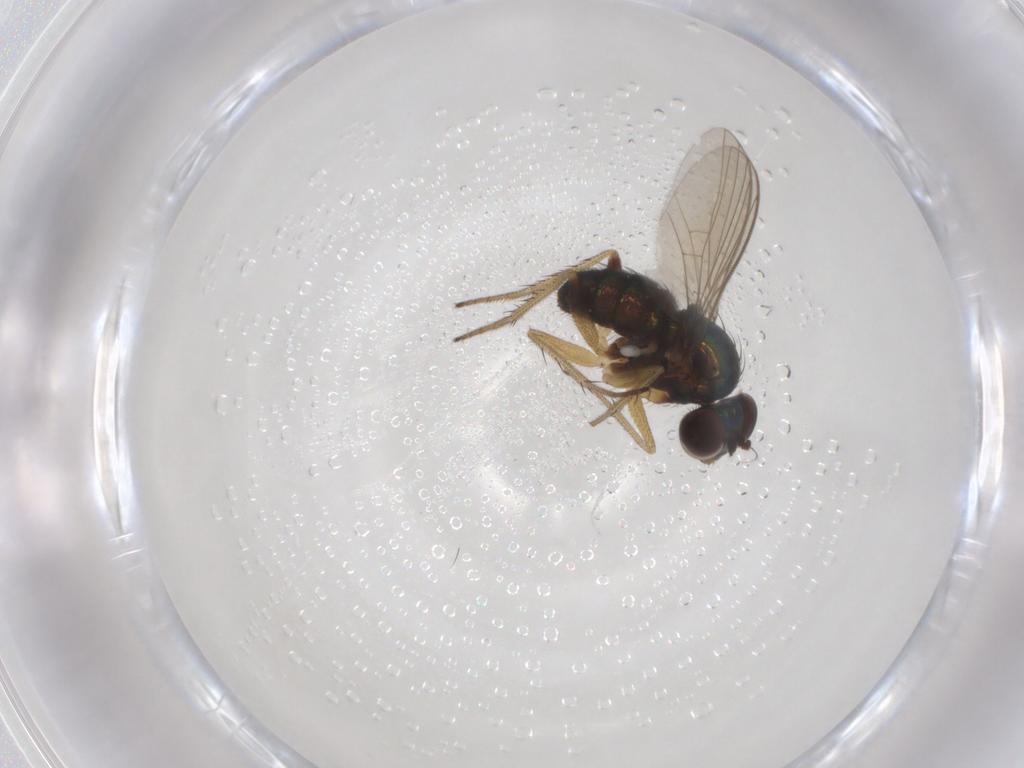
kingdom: Animalia
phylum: Arthropoda
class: Insecta
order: Diptera
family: Dolichopodidae
